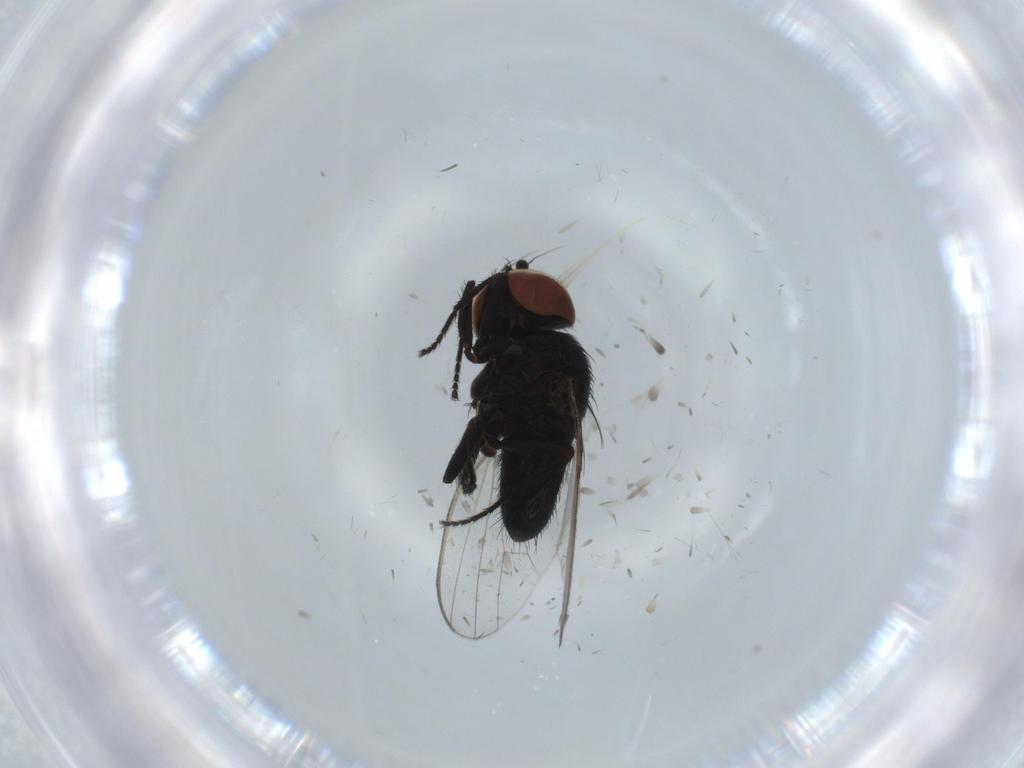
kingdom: Animalia
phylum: Arthropoda
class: Insecta
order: Diptera
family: Milichiidae
